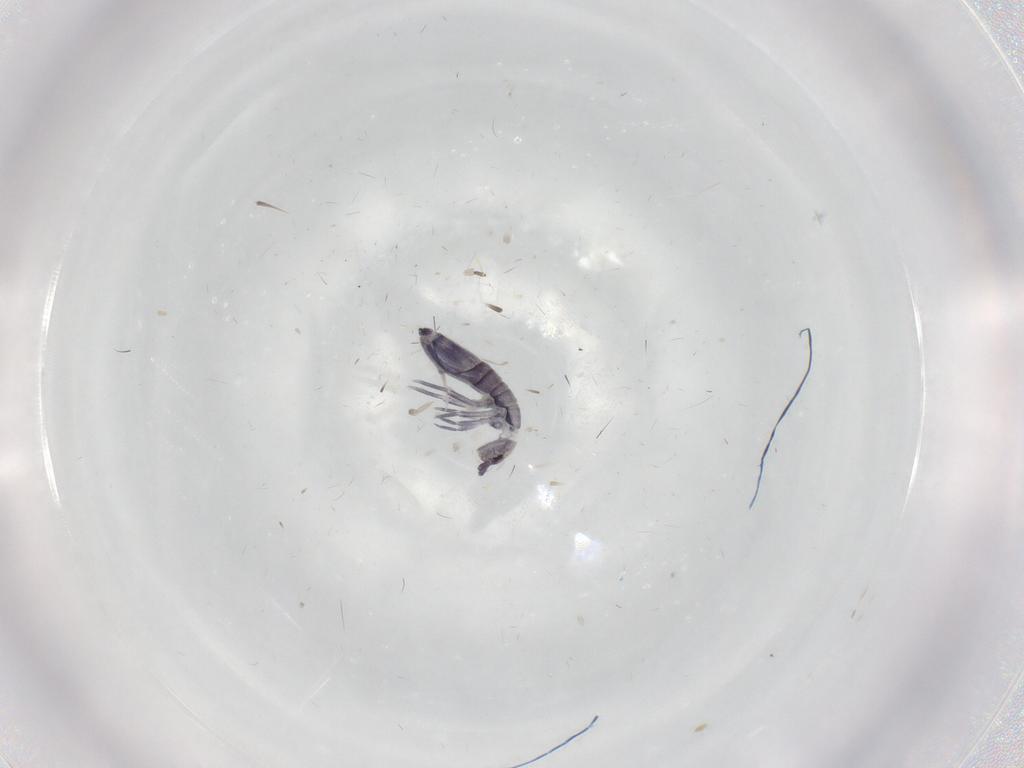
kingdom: Animalia
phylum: Arthropoda
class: Collembola
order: Entomobryomorpha
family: Entomobryidae
